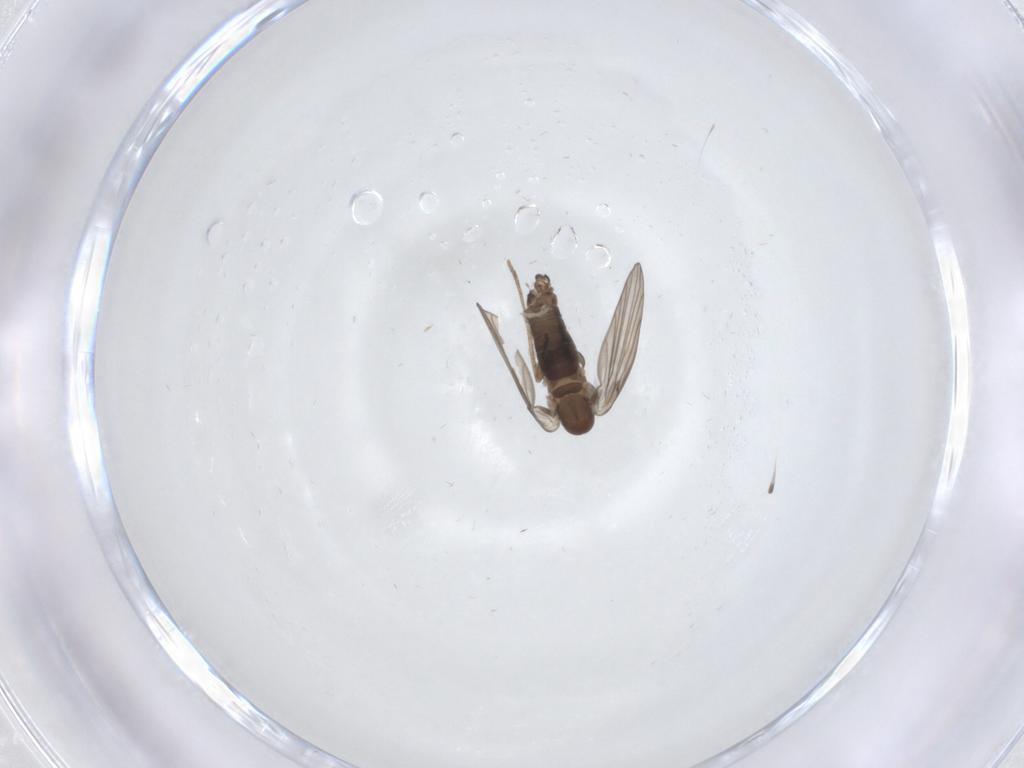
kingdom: Animalia
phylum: Arthropoda
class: Insecta
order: Diptera
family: Psychodidae
